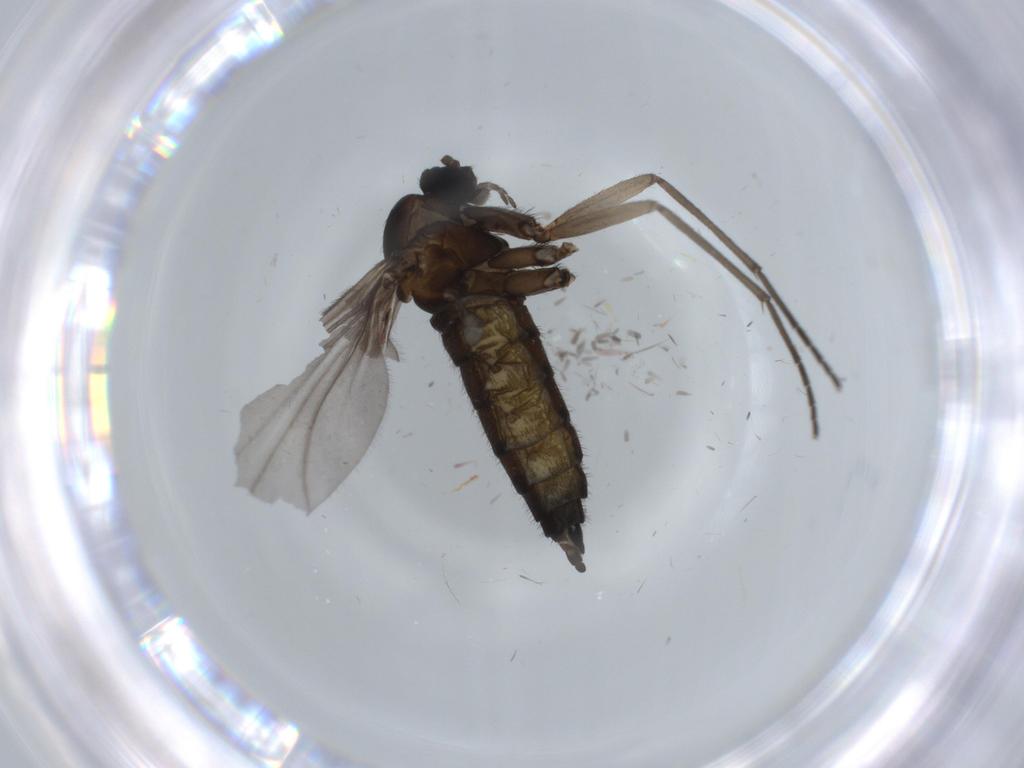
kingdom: Animalia
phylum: Arthropoda
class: Insecta
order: Diptera
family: Sciaridae
